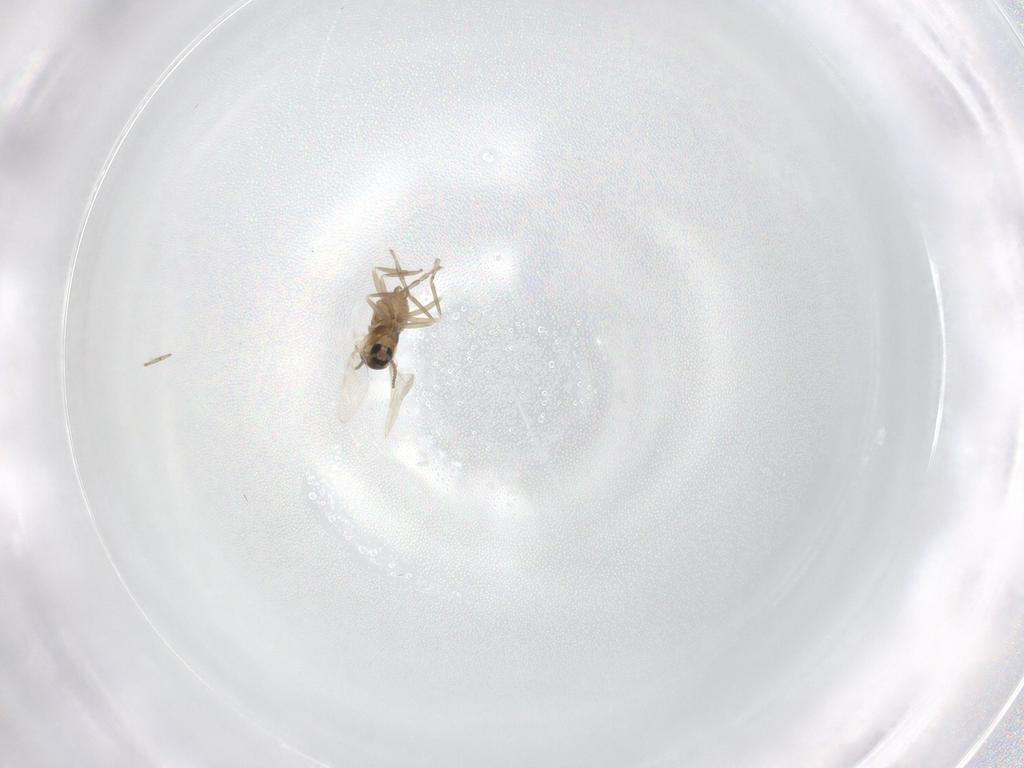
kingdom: Animalia
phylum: Arthropoda
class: Insecta
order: Diptera
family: Cecidomyiidae
